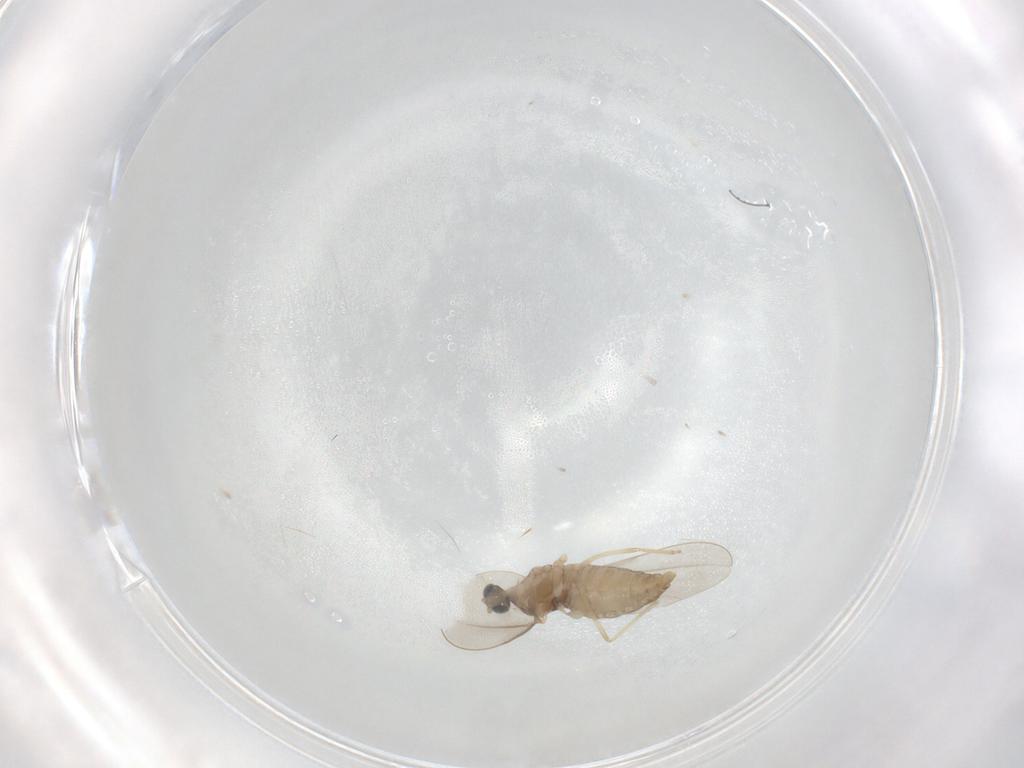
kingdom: Animalia
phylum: Arthropoda
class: Insecta
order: Diptera
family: Cecidomyiidae
